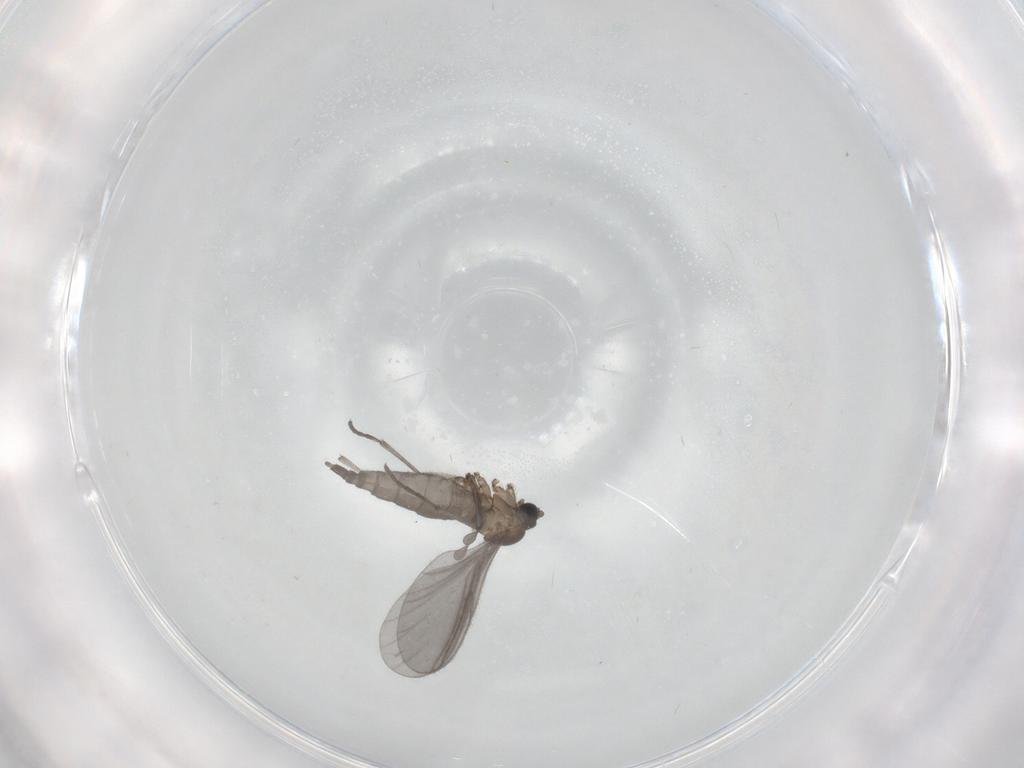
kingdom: Animalia
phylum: Arthropoda
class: Insecta
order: Diptera
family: Sciaridae
